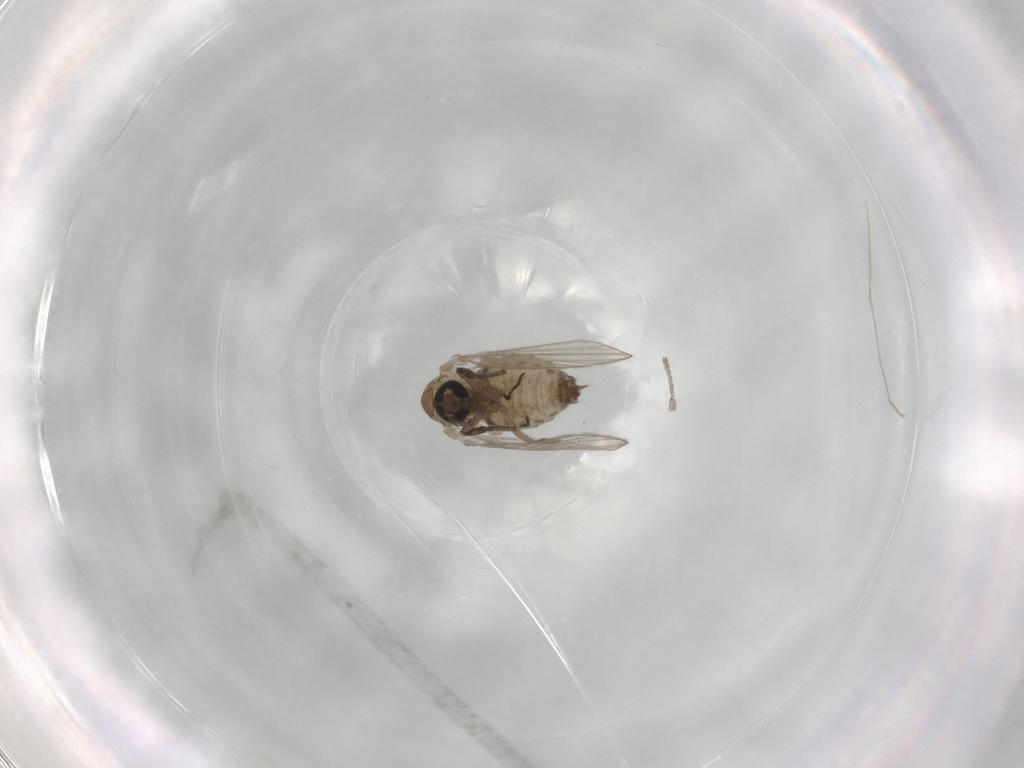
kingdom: Animalia
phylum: Arthropoda
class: Insecta
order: Diptera
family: Psychodidae
